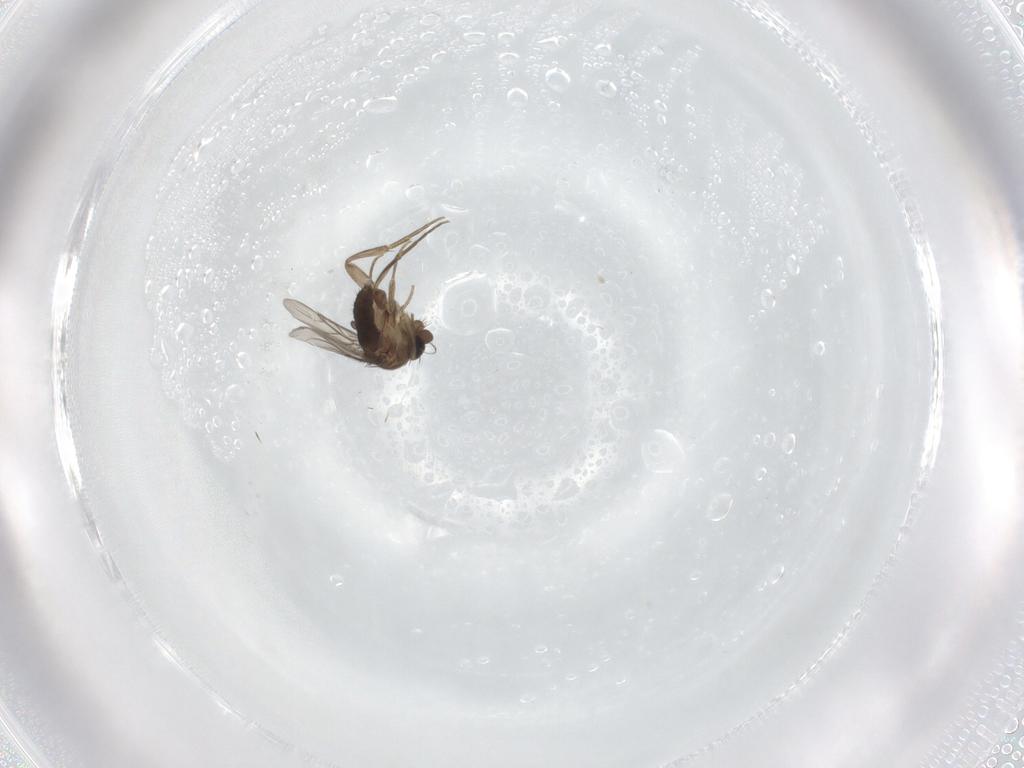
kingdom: Animalia
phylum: Arthropoda
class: Insecta
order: Diptera
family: Phoridae
